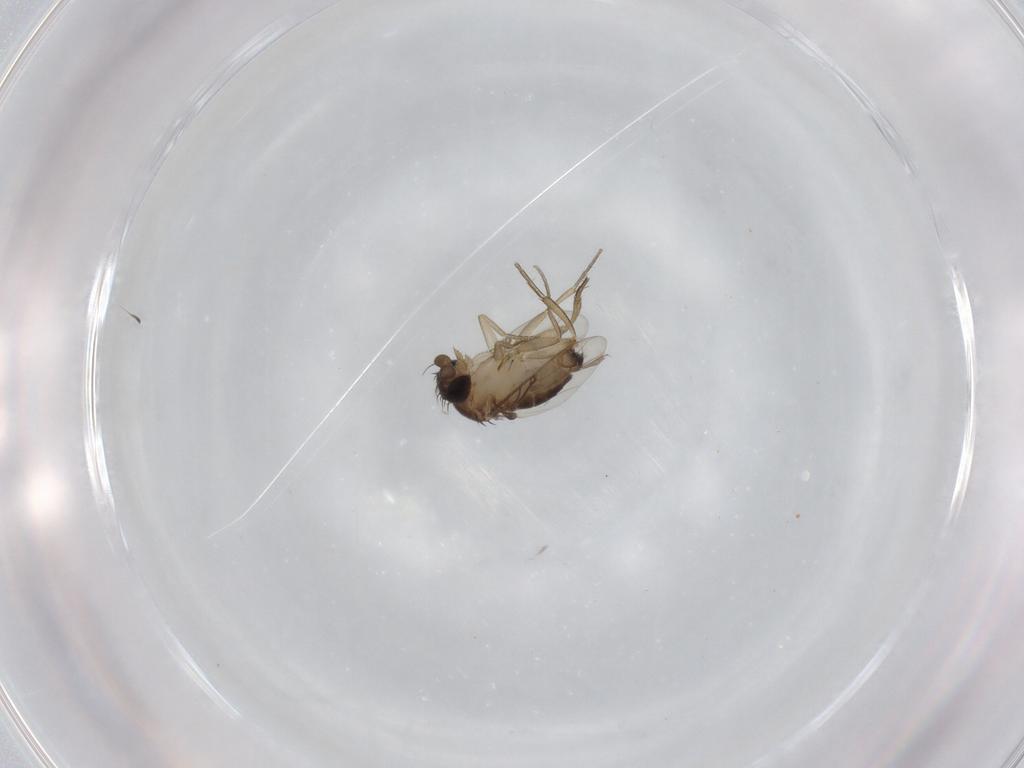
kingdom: Animalia
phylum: Arthropoda
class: Insecta
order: Diptera
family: Phoridae
